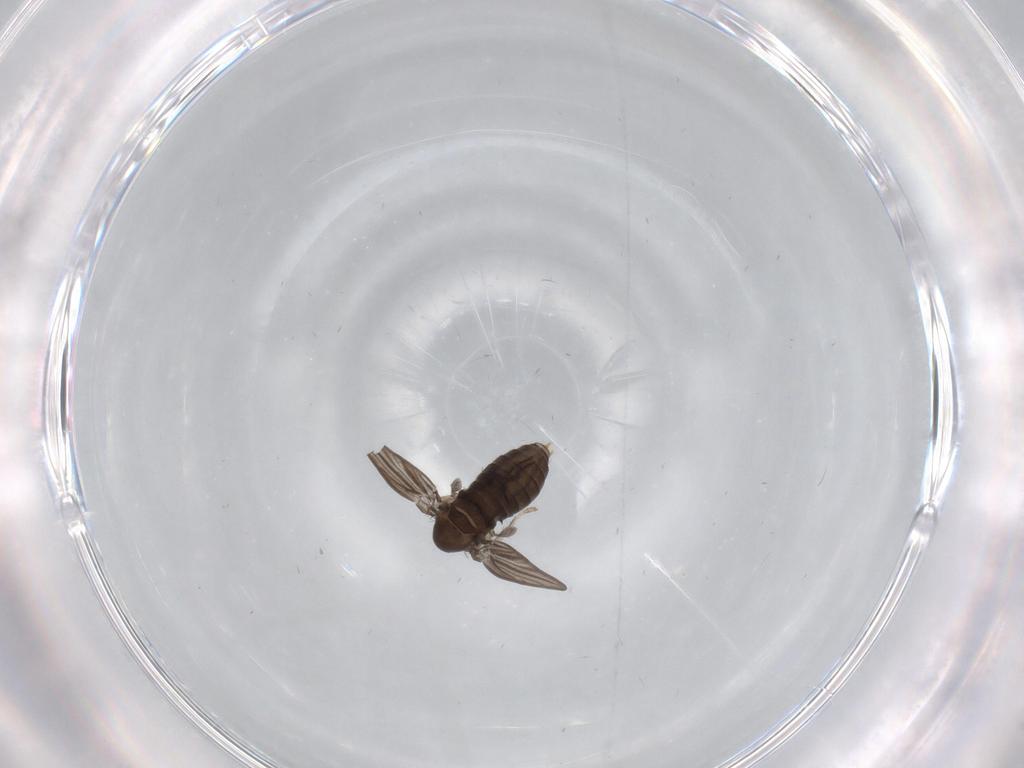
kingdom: Animalia
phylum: Arthropoda
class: Insecta
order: Diptera
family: Psychodidae
